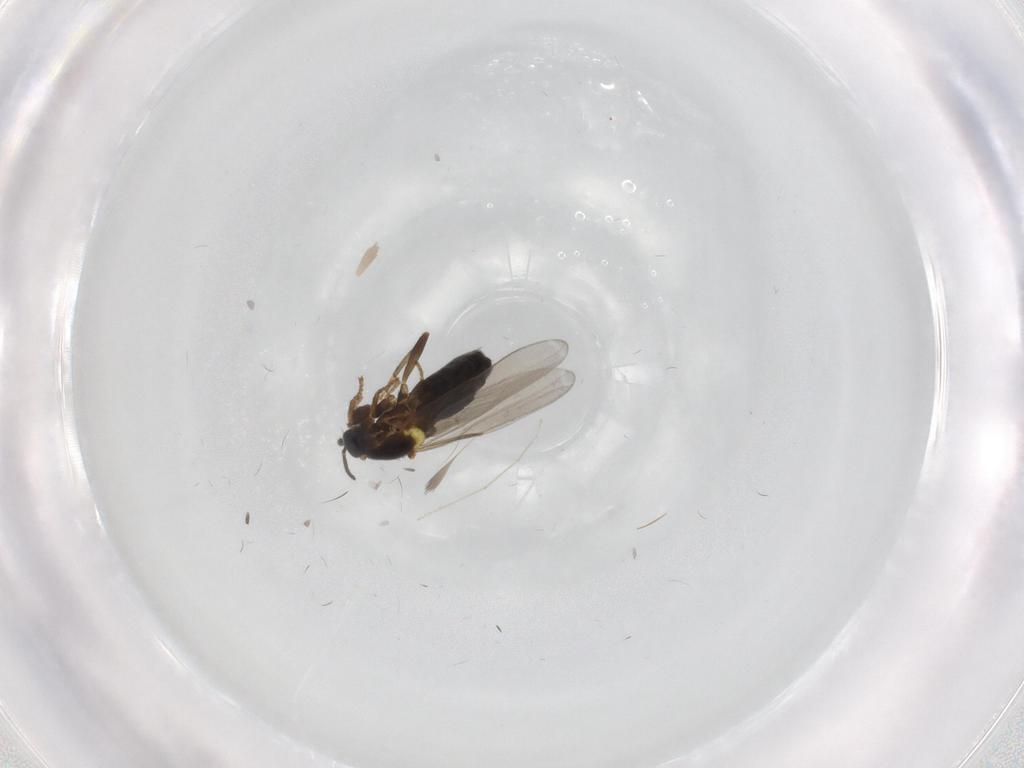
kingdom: Animalia
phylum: Arthropoda
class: Insecta
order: Diptera
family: Scatopsidae
